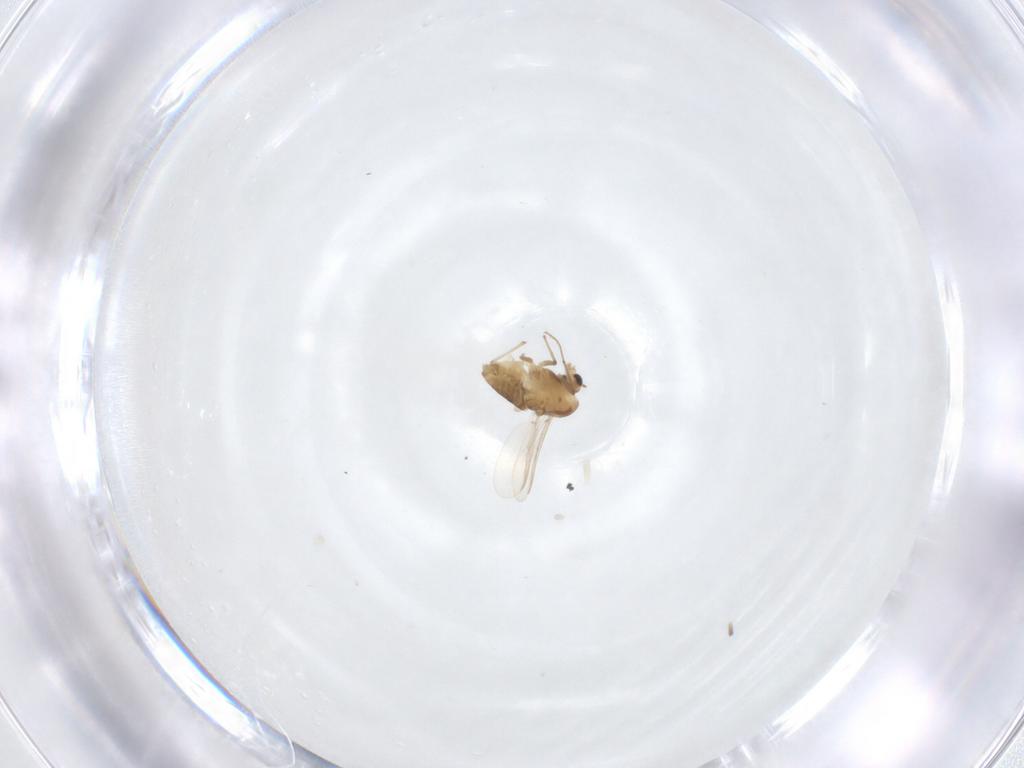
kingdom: Animalia
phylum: Arthropoda
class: Insecta
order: Diptera
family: Chironomidae
